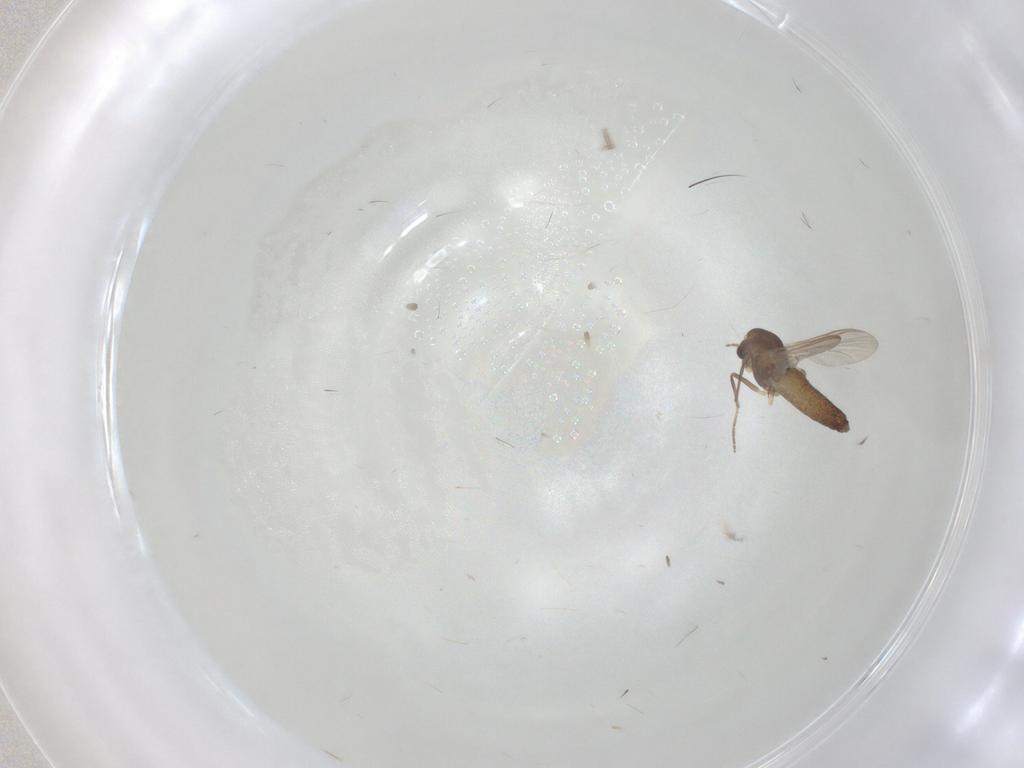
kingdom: Animalia
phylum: Arthropoda
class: Insecta
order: Diptera
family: Chironomidae
